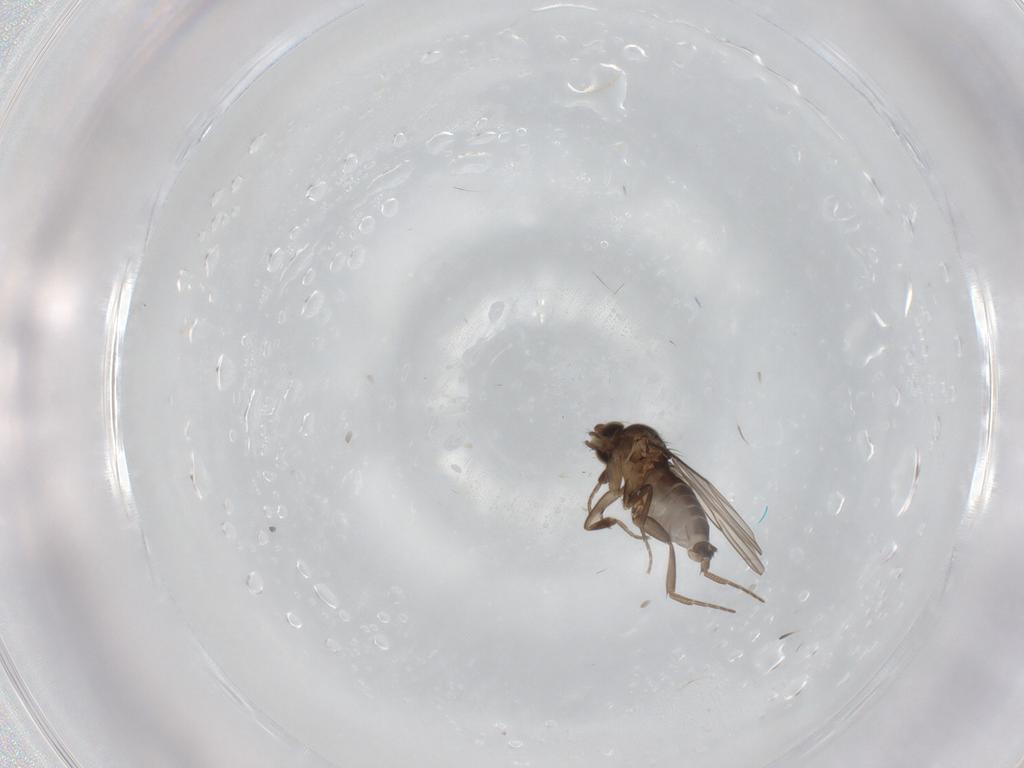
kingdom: Animalia
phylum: Arthropoda
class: Insecta
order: Diptera
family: Phoridae
